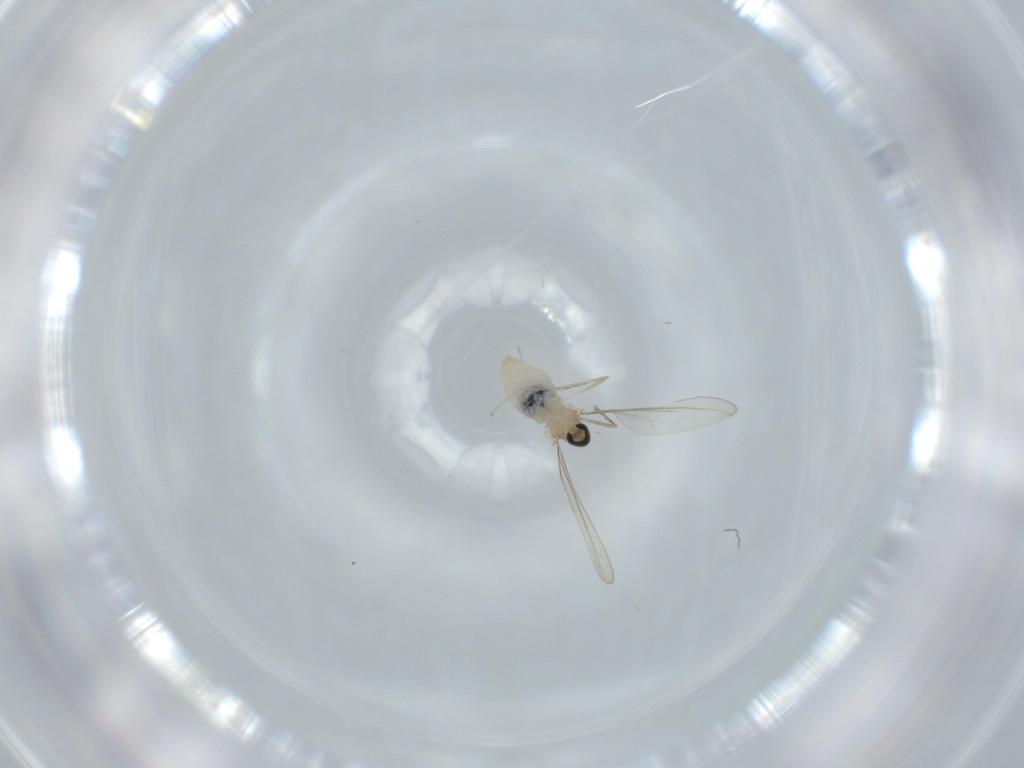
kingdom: Animalia
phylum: Arthropoda
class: Insecta
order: Diptera
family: Cecidomyiidae
